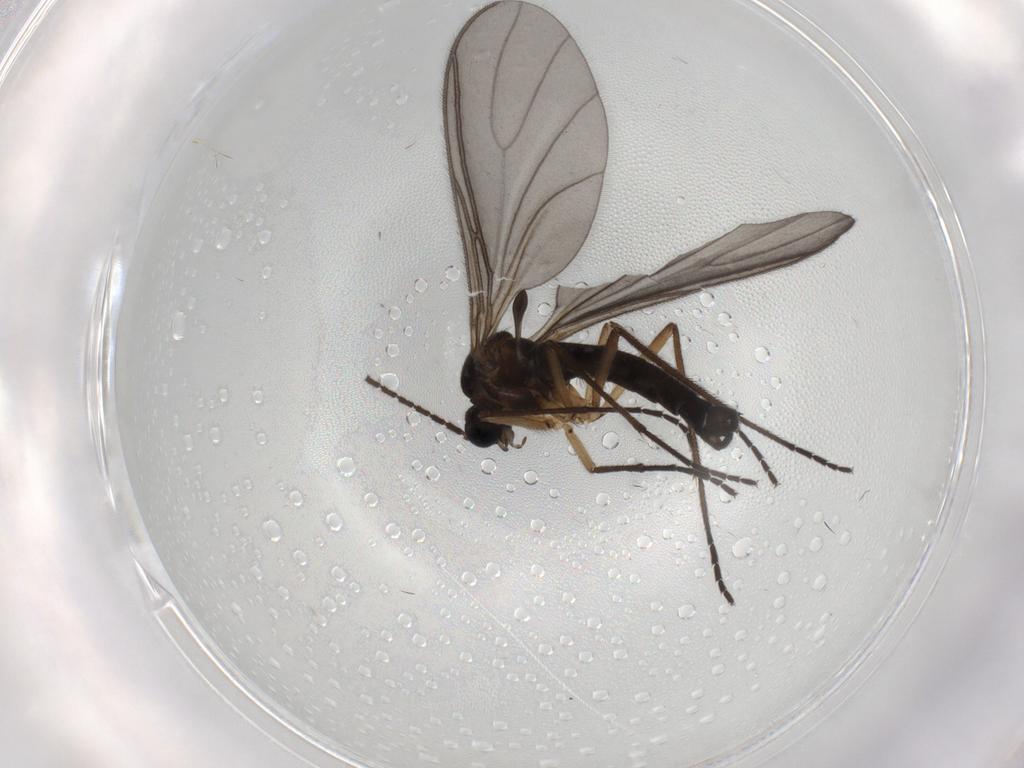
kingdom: Animalia
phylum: Arthropoda
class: Insecta
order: Diptera
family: Sciaridae
